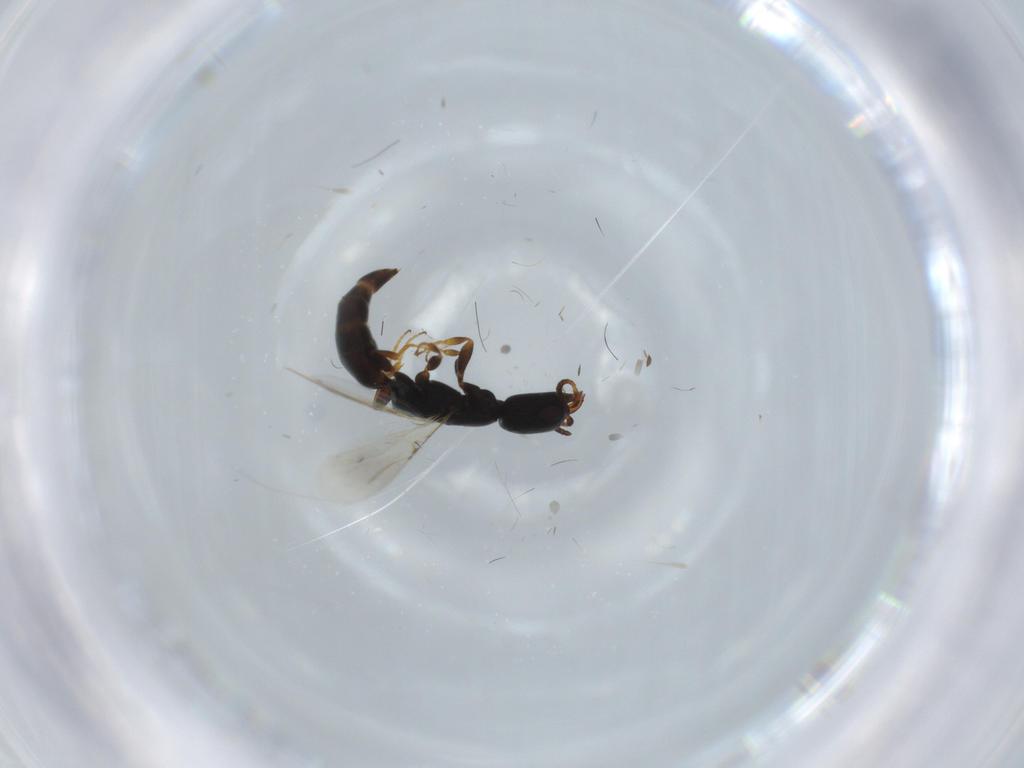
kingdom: Animalia
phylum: Arthropoda
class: Insecta
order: Hymenoptera
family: Bethylidae
